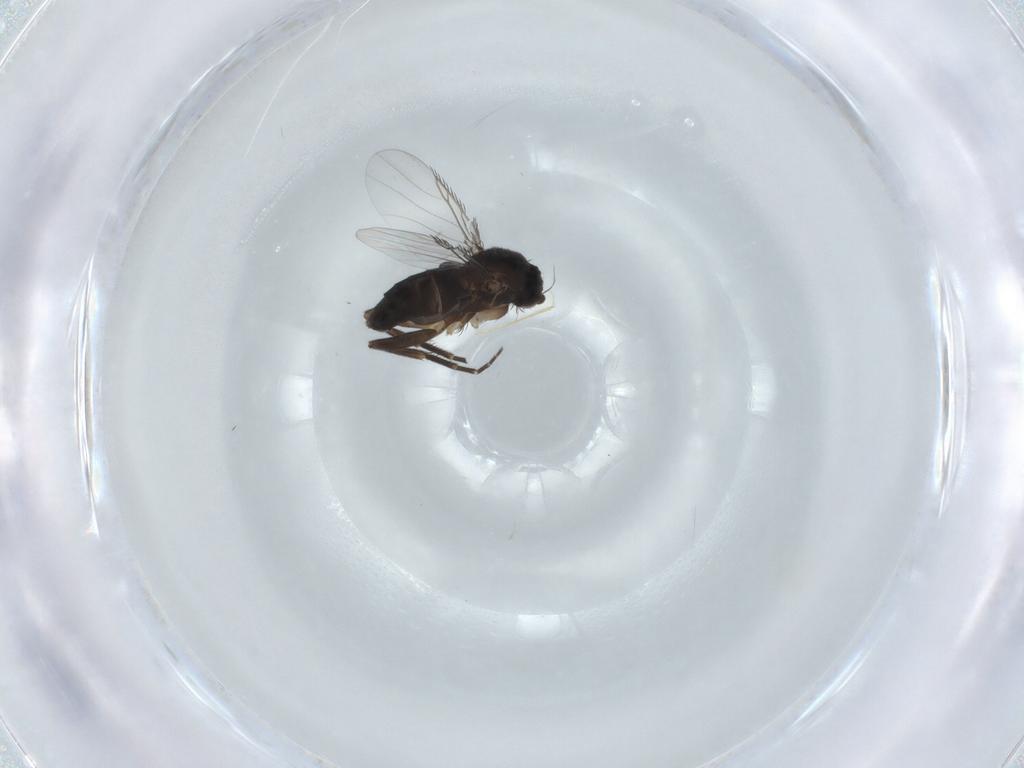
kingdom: Animalia
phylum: Arthropoda
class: Insecta
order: Diptera
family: Phoridae
